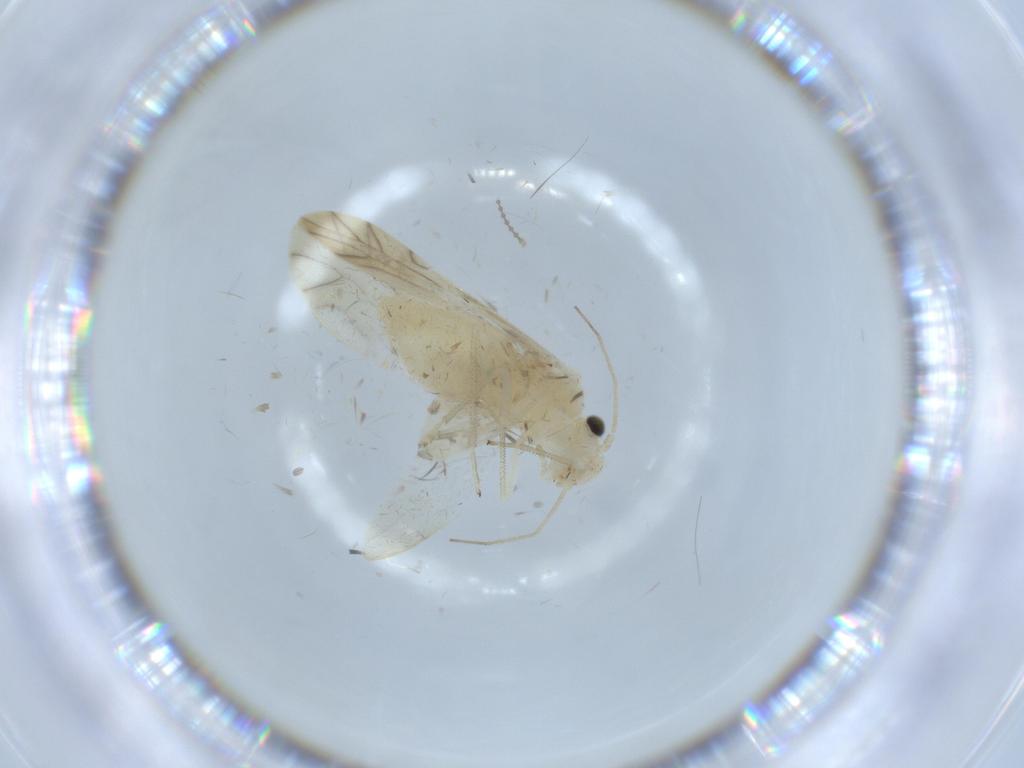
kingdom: Animalia
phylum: Arthropoda
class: Insecta
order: Psocodea
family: Caeciliusidae
